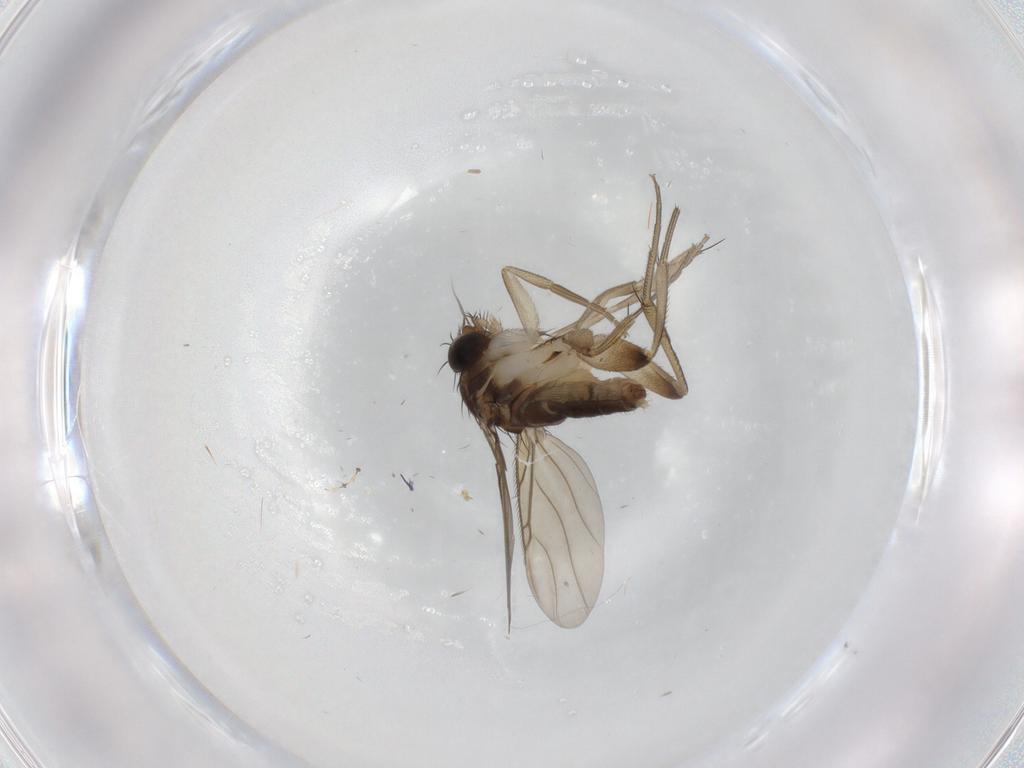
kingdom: Animalia
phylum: Arthropoda
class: Insecta
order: Diptera
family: Phoridae
